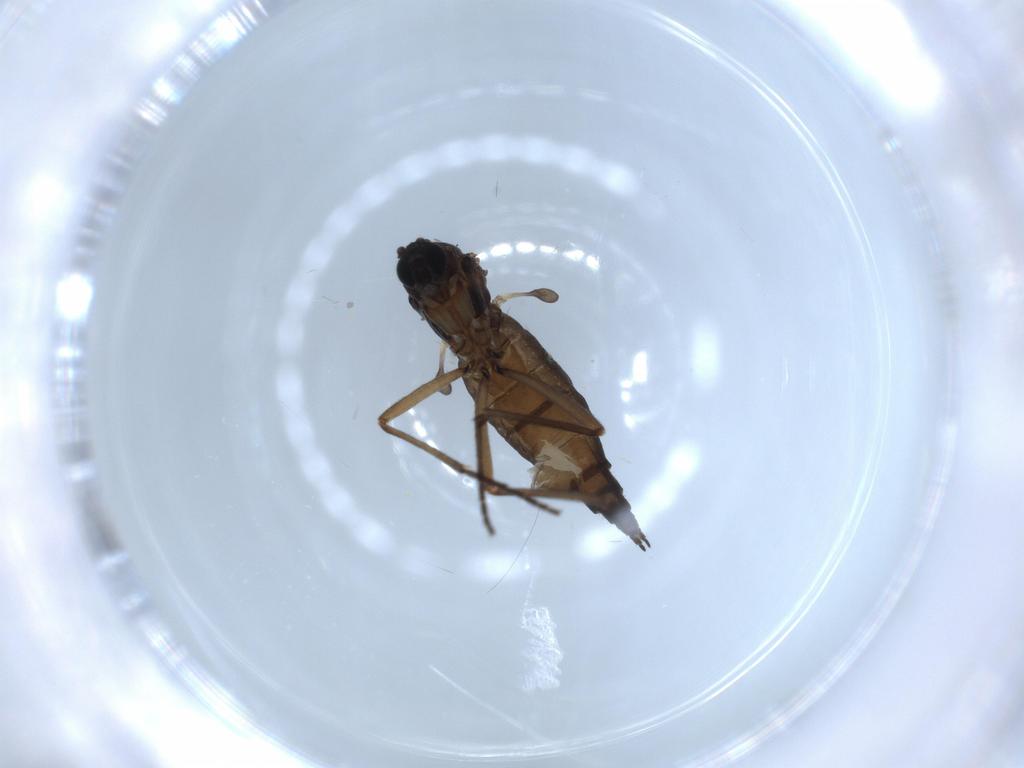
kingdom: Animalia
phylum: Arthropoda
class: Insecta
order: Diptera
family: Sciaridae
